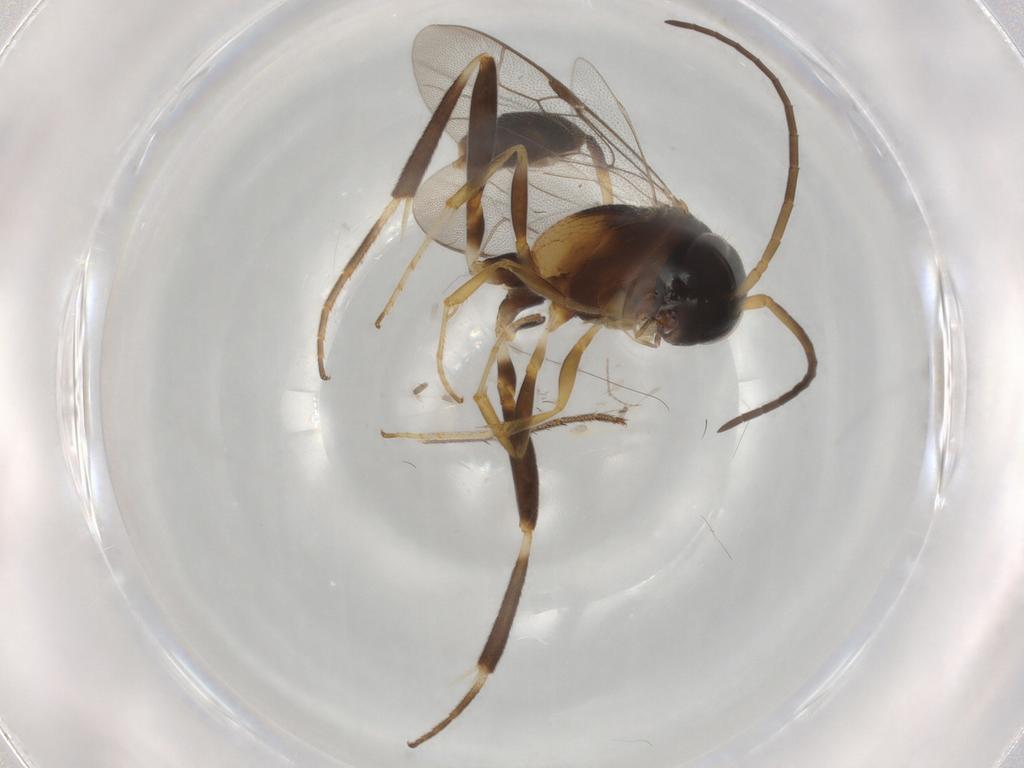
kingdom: Animalia
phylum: Arthropoda
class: Insecta
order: Hymenoptera
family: Evaniidae
